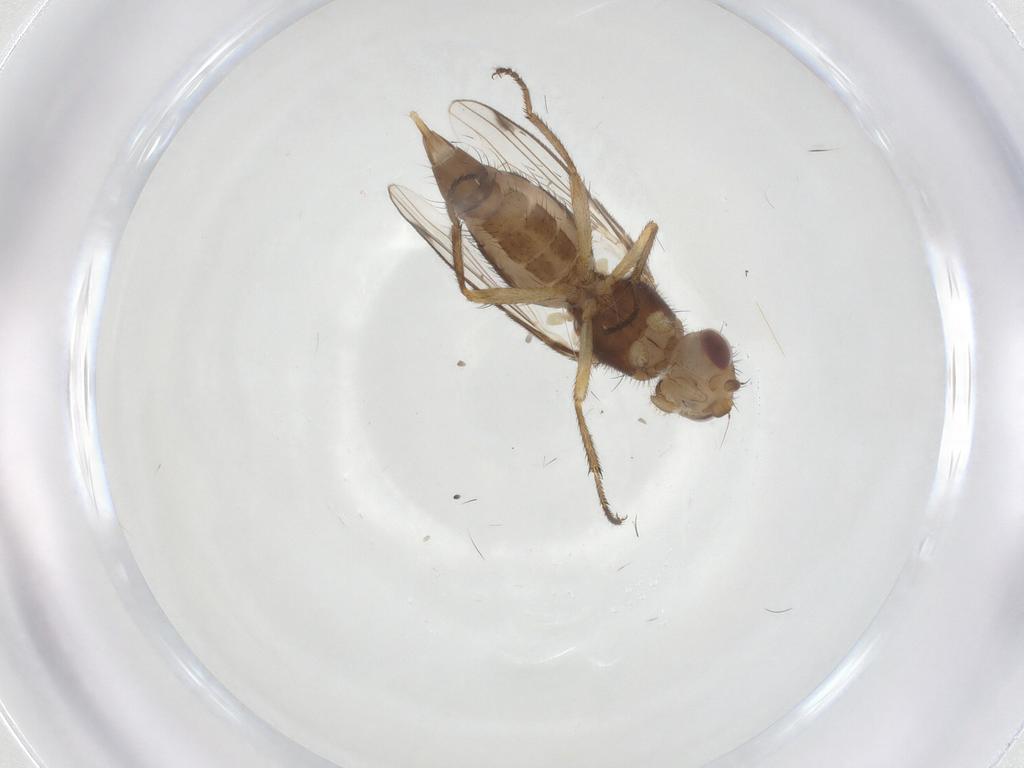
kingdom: Animalia
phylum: Arthropoda
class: Insecta
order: Diptera
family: Richardiidae
